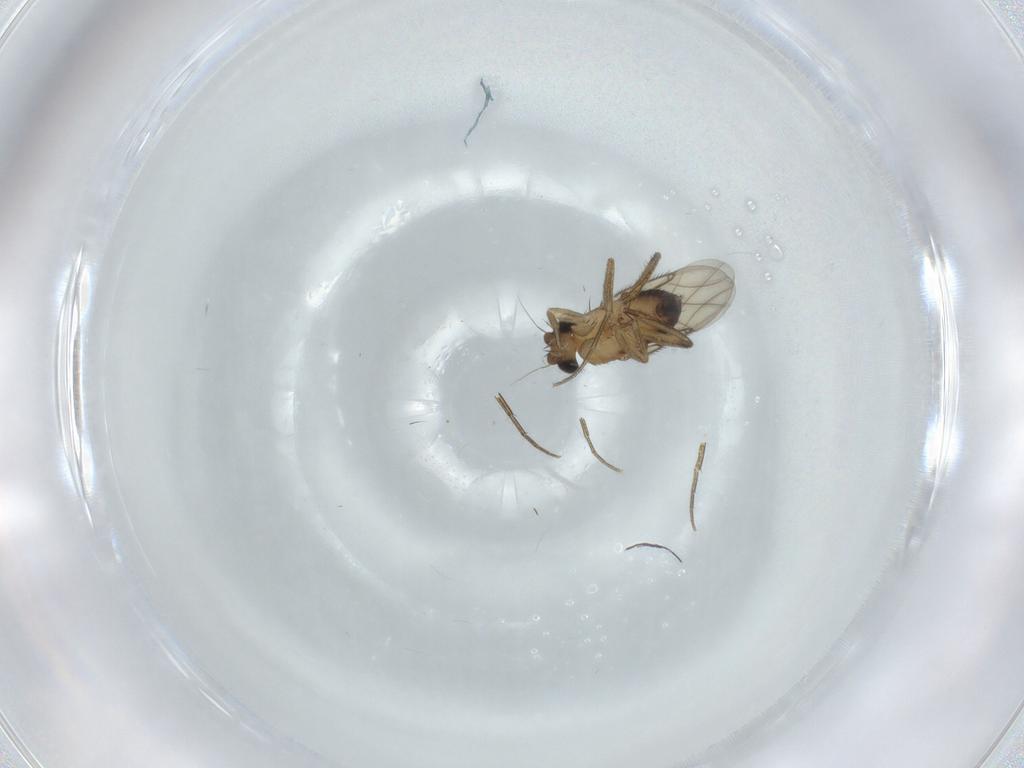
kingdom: Animalia
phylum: Arthropoda
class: Insecta
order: Diptera
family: Phoridae
